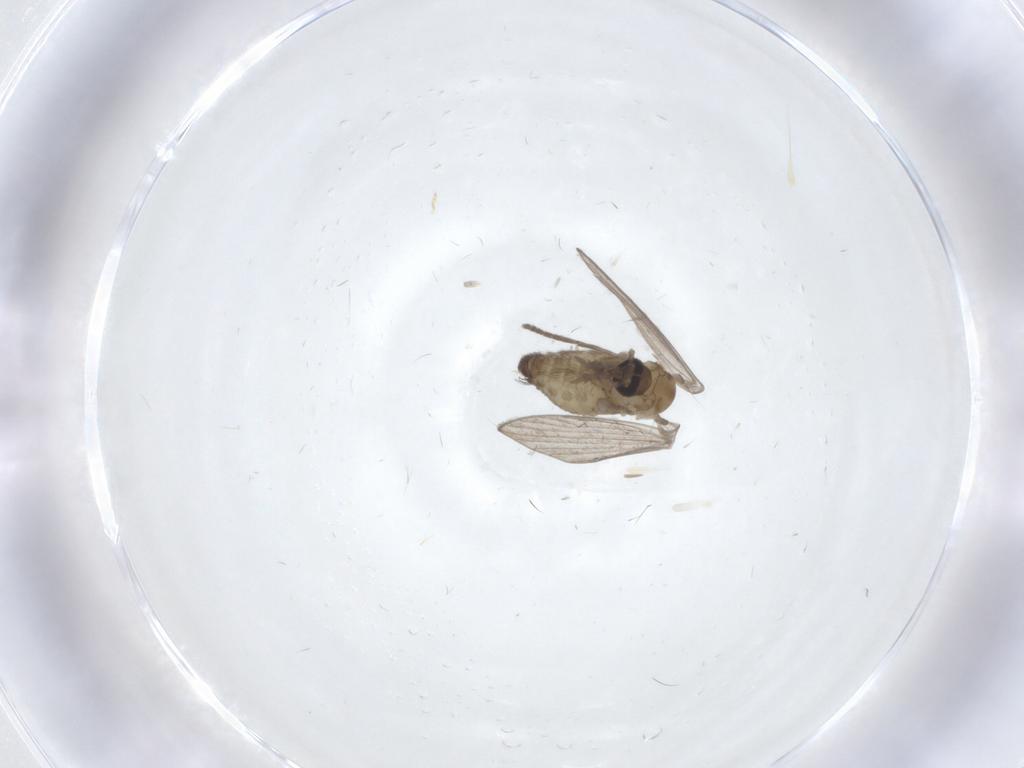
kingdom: Animalia
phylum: Arthropoda
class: Insecta
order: Diptera
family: Psychodidae
